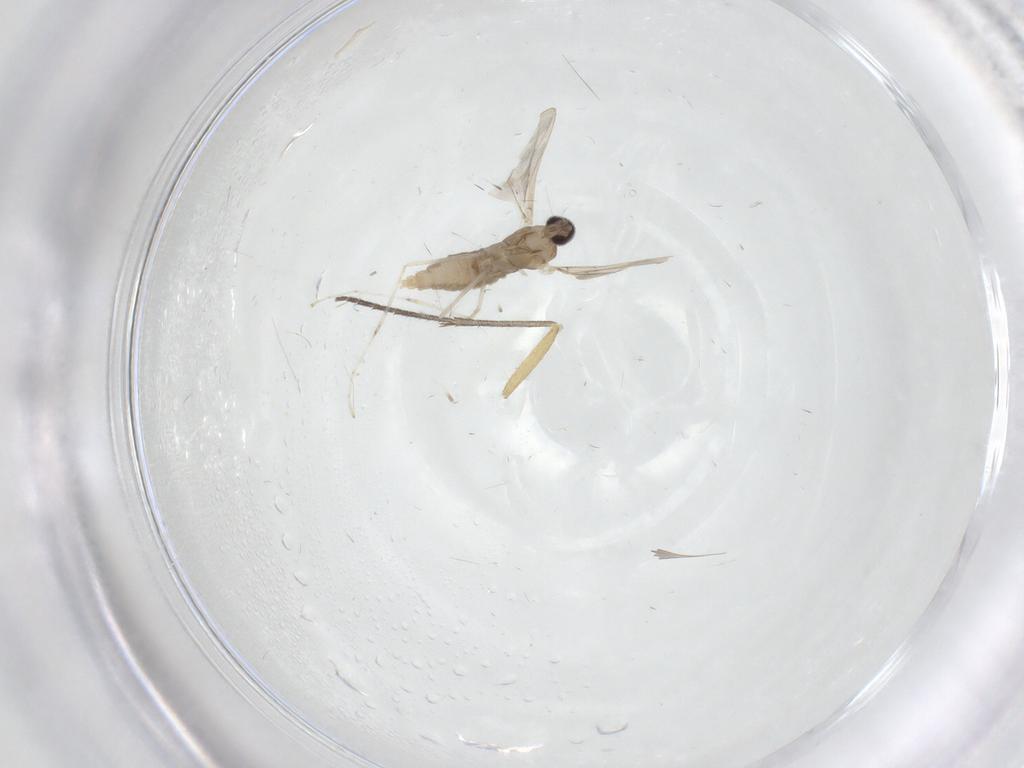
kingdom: Animalia
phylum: Arthropoda
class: Insecta
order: Diptera
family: Cecidomyiidae
